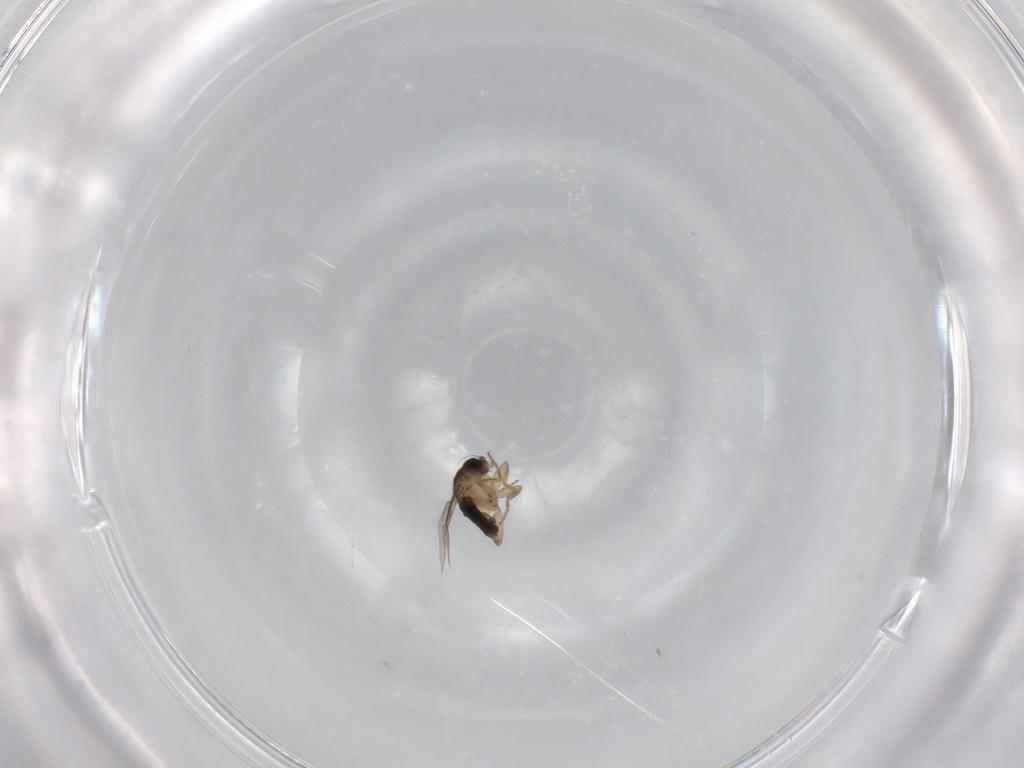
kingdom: Animalia
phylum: Arthropoda
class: Insecta
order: Diptera
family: Phoridae
